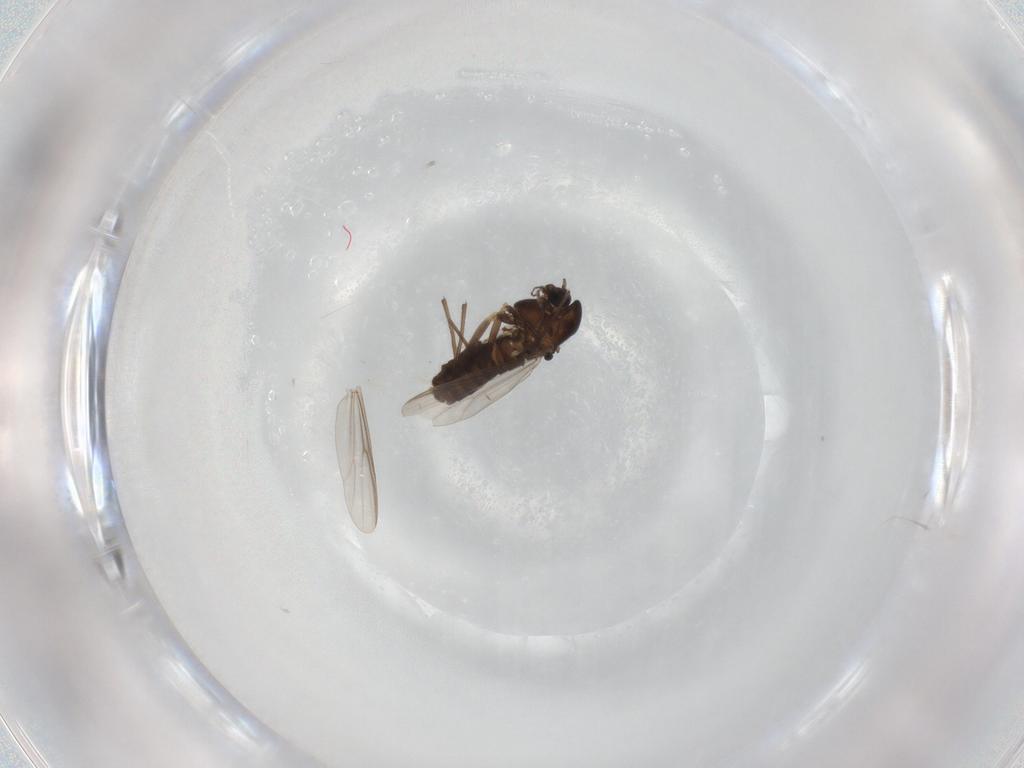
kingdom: Animalia
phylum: Arthropoda
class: Insecta
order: Diptera
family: Chironomidae
